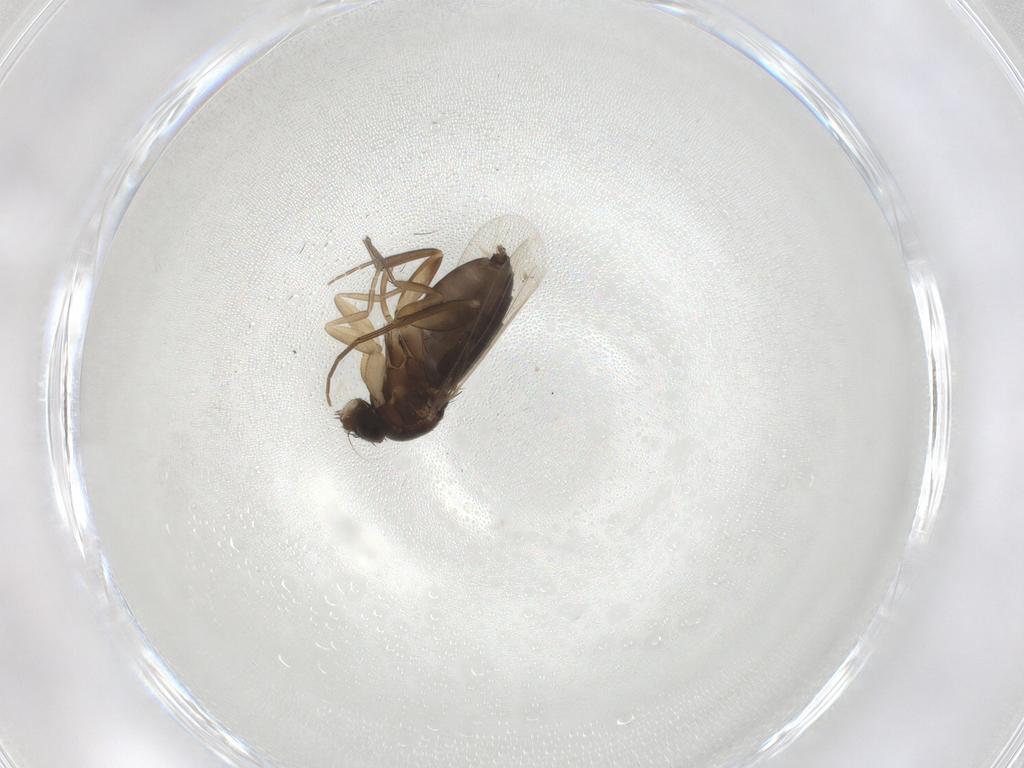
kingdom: Animalia
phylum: Arthropoda
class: Insecta
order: Diptera
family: Phoridae
